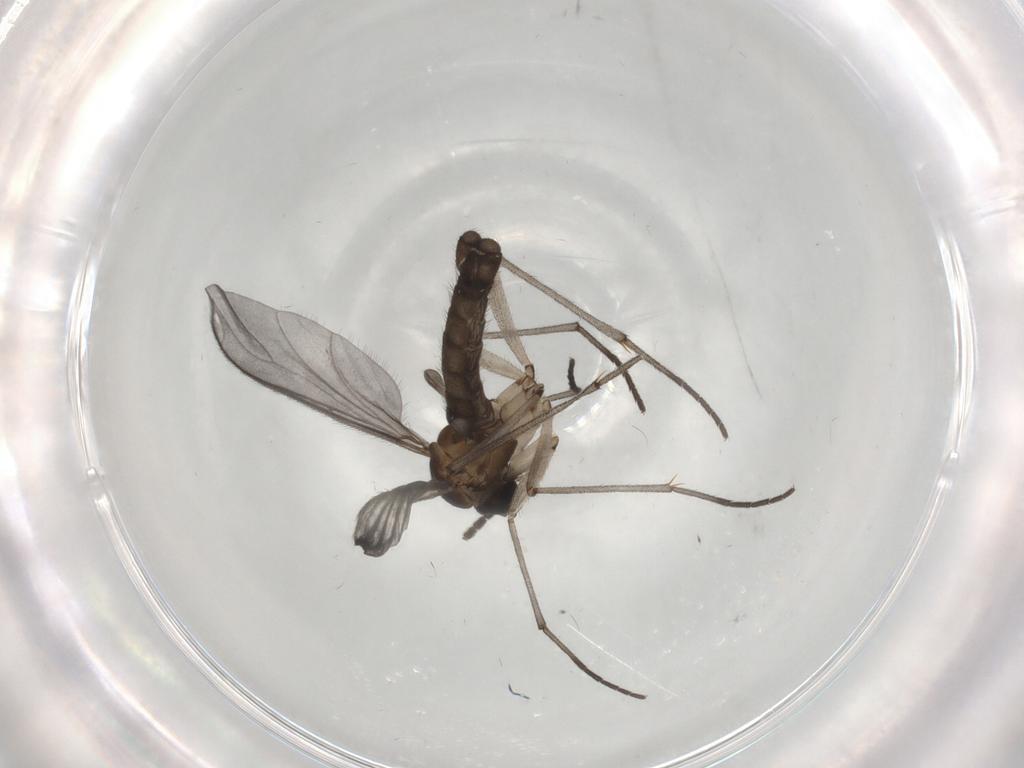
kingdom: Animalia
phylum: Arthropoda
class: Insecta
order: Diptera
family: Sciaridae
